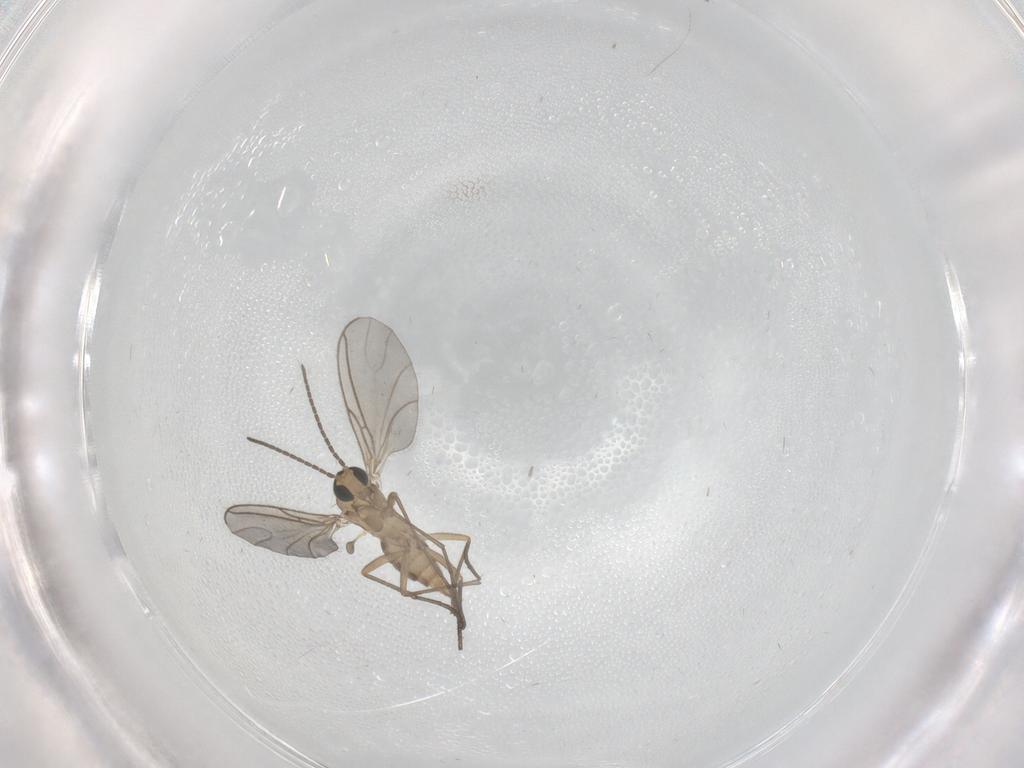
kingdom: Animalia
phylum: Arthropoda
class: Insecta
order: Diptera
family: Sciaridae
